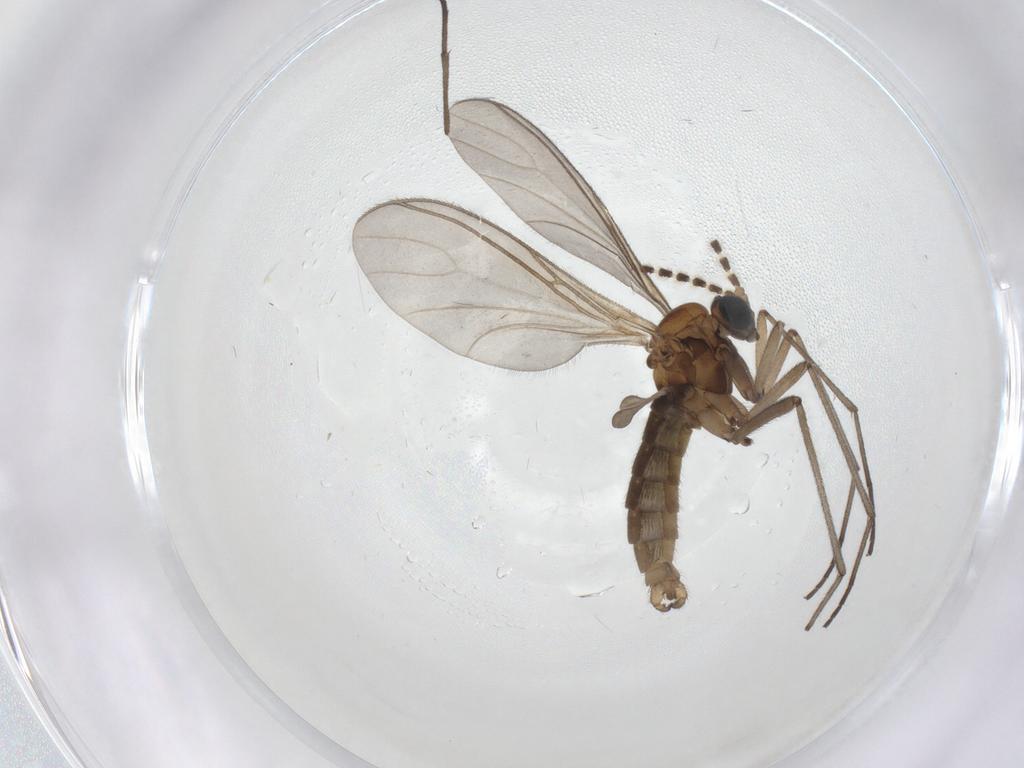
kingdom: Animalia
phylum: Arthropoda
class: Insecta
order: Diptera
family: Sciaridae
